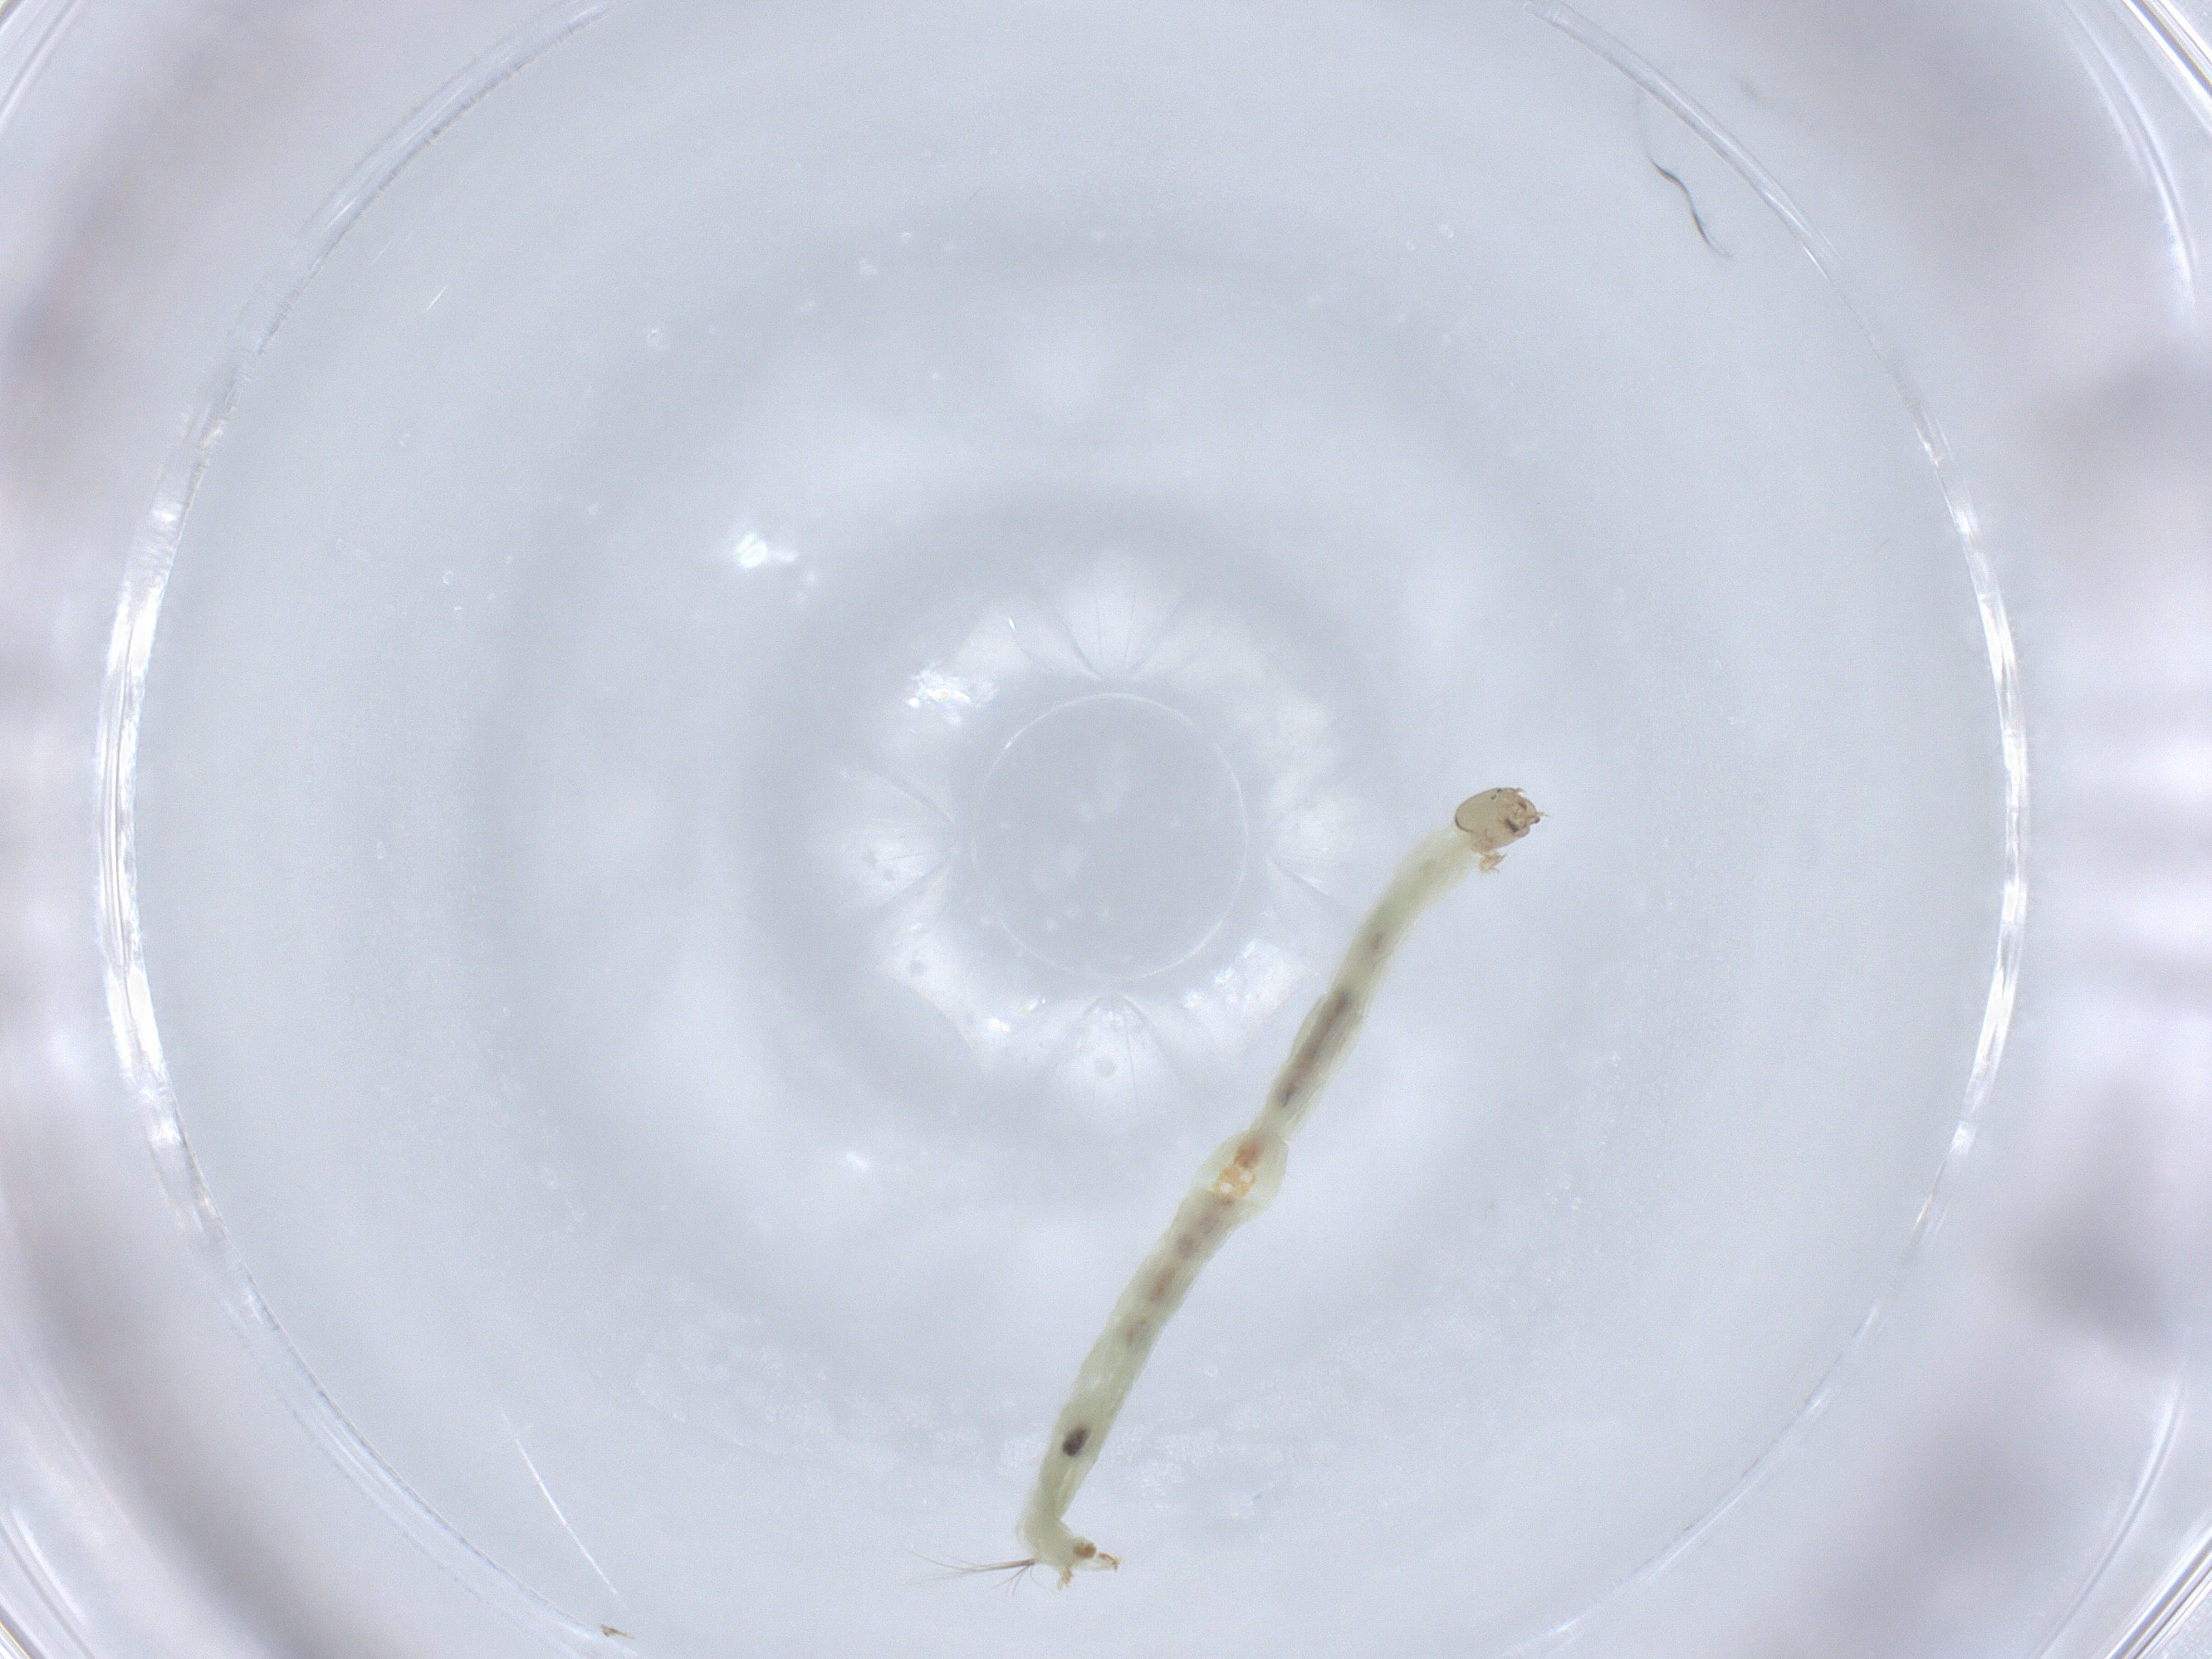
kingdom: Animalia
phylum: Arthropoda
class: Insecta
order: Diptera
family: Chironomidae
